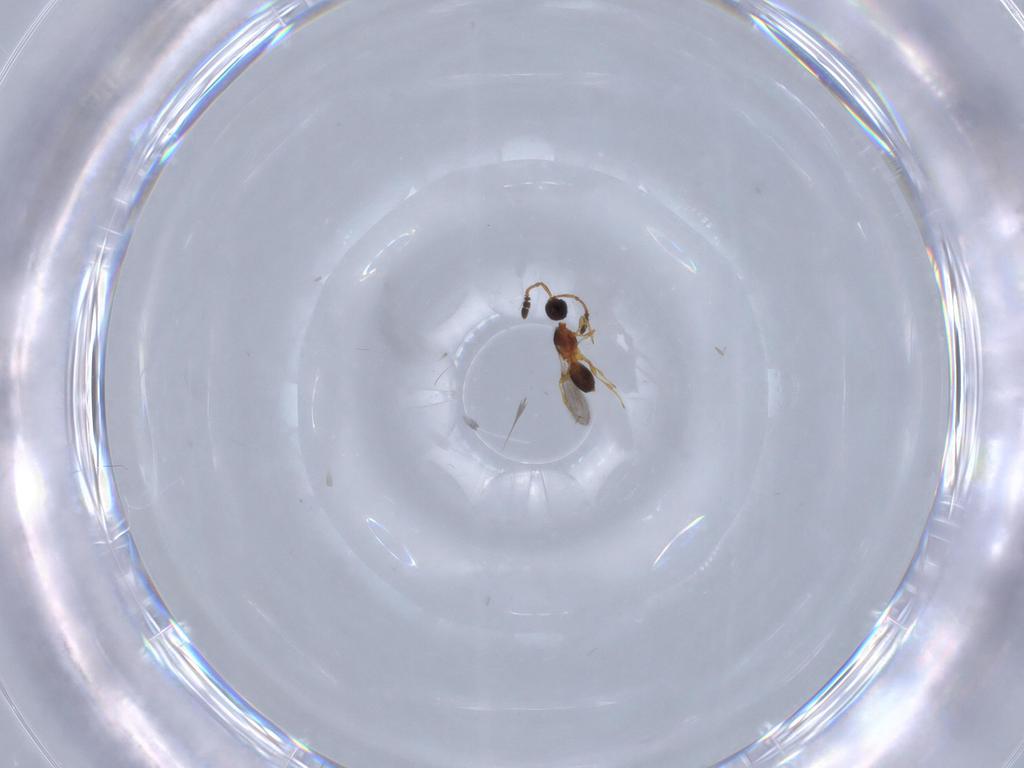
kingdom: Animalia
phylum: Arthropoda
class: Insecta
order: Hymenoptera
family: Diapriidae
